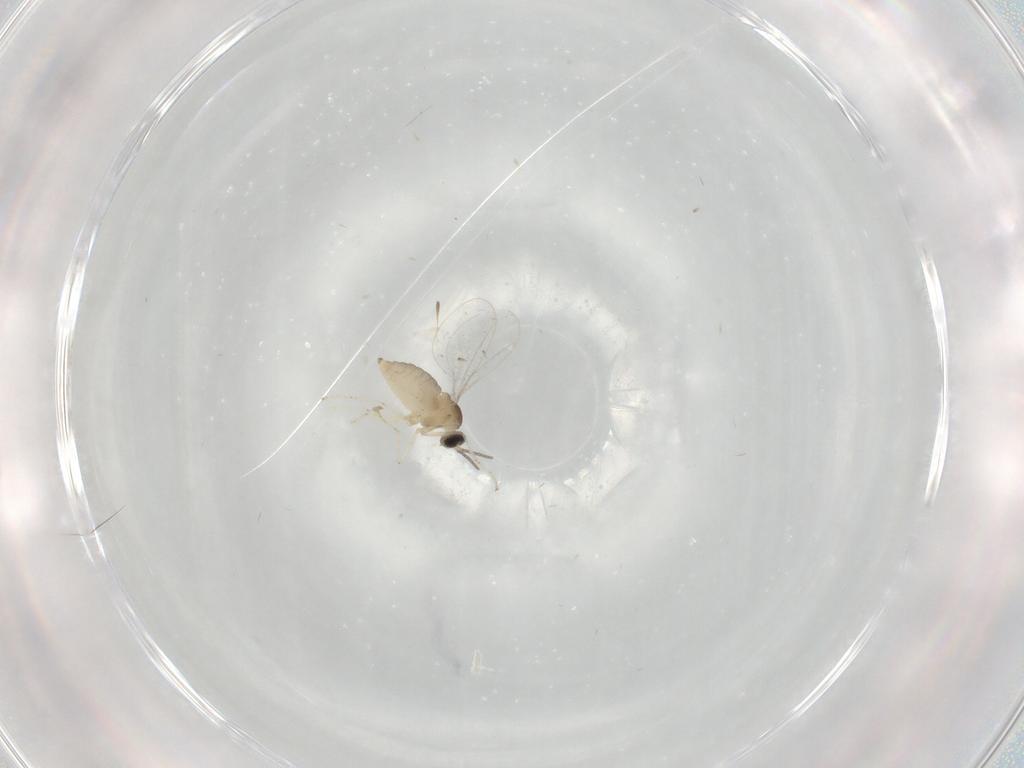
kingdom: Animalia
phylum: Arthropoda
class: Insecta
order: Diptera
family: Cecidomyiidae
